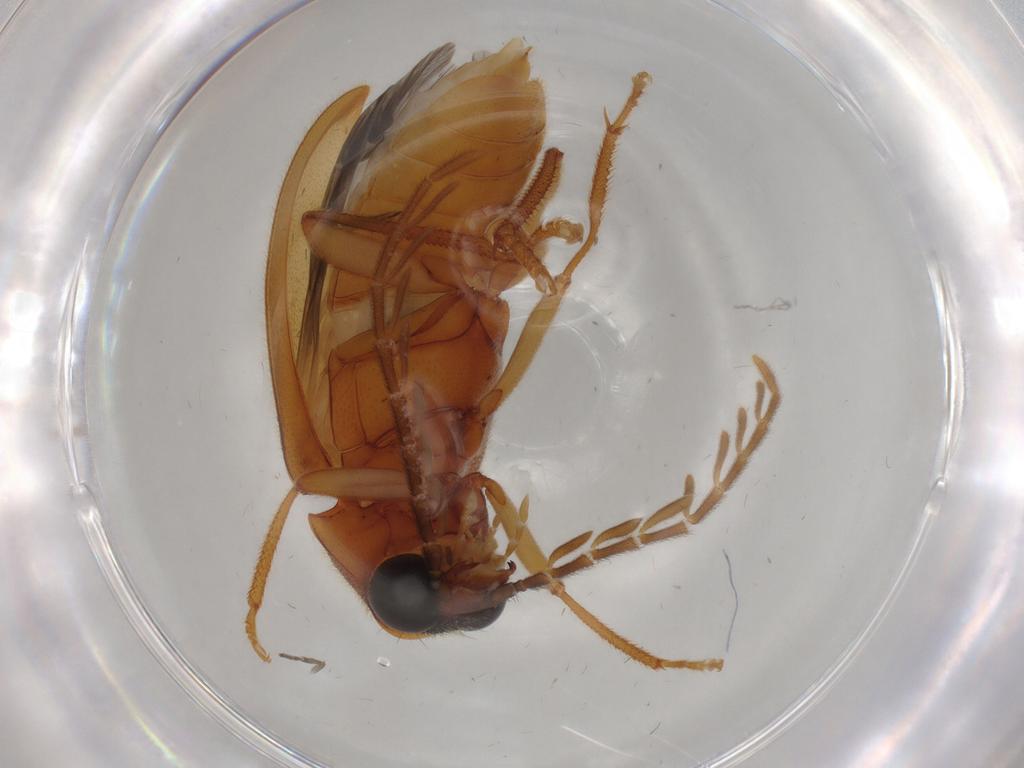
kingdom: Animalia
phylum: Arthropoda
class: Insecta
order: Coleoptera
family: Ptilodactylidae
